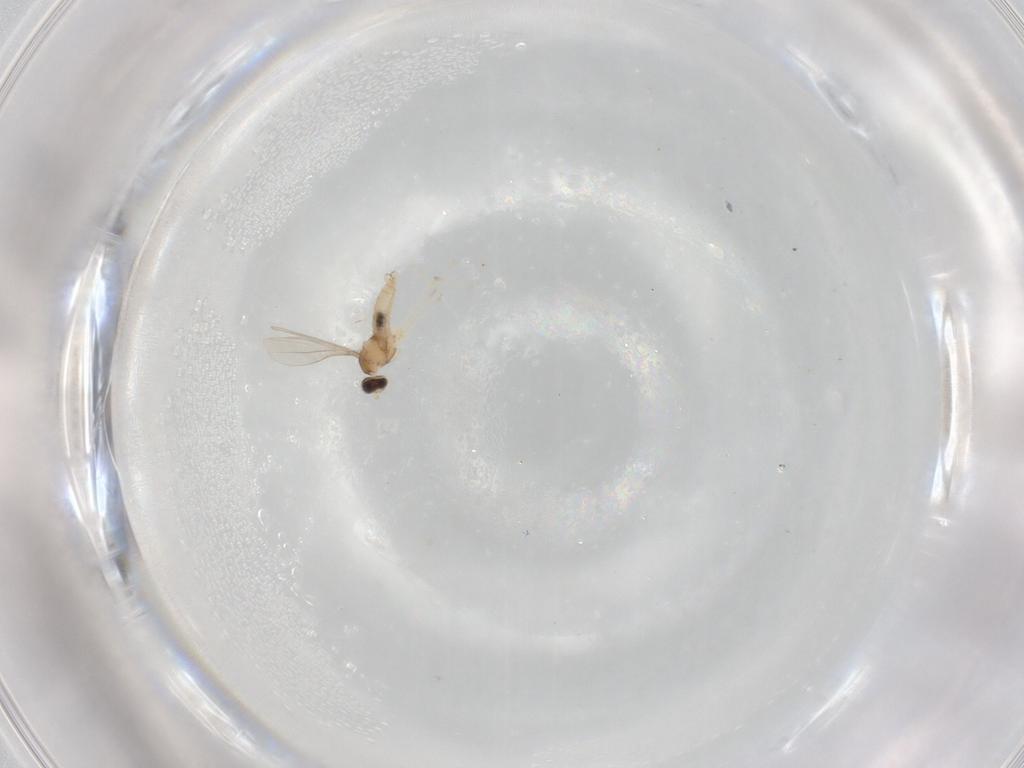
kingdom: Animalia
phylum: Arthropoda
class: Insecta
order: Diptera
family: Cecidomyiidae
